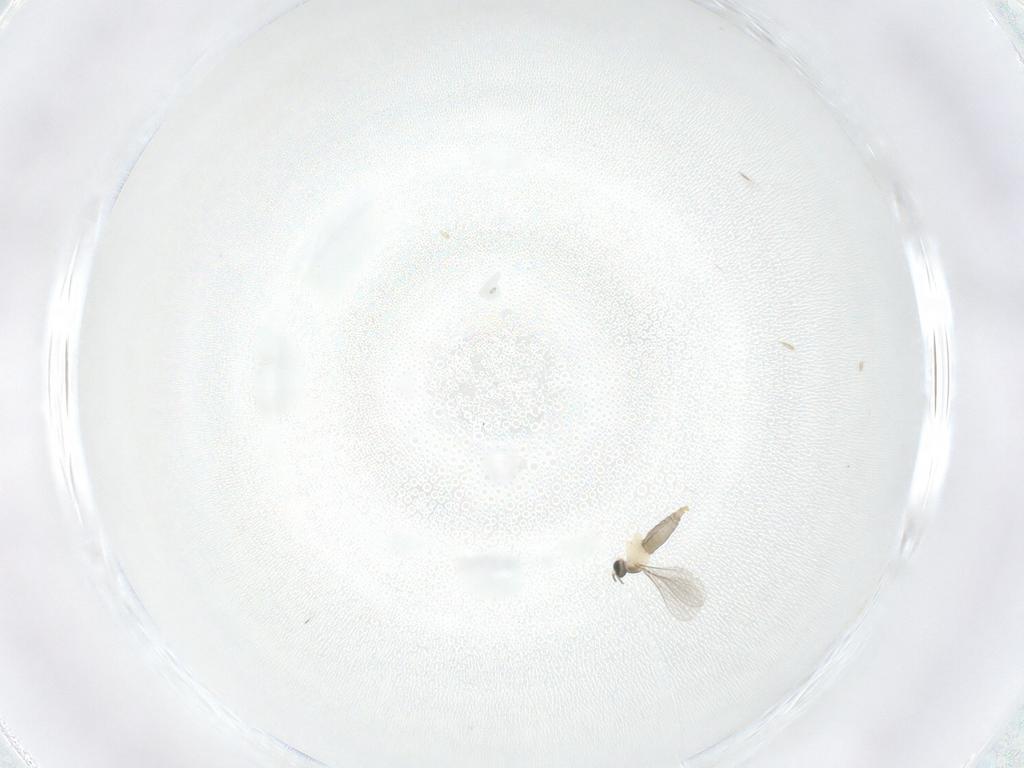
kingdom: Animalia
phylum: Arthropoda
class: Insecta
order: Diptera
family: Cecidomyiidae
